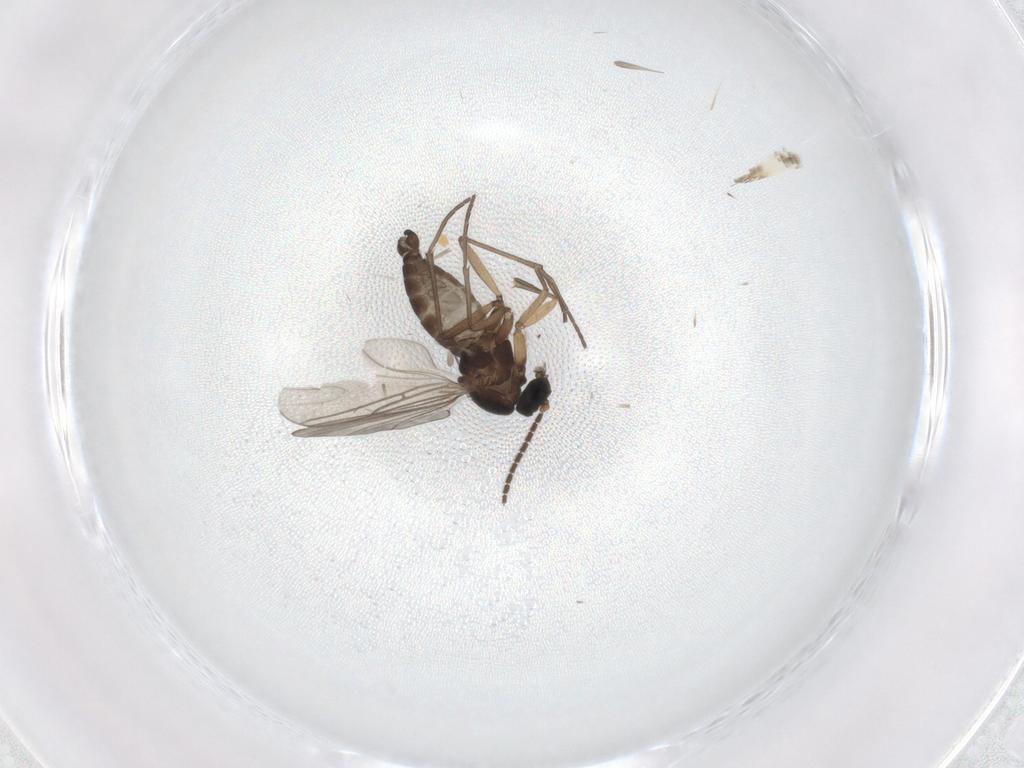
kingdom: Animalia
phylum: Arthropoda
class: Insecta
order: Diptera
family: Sciaridae
